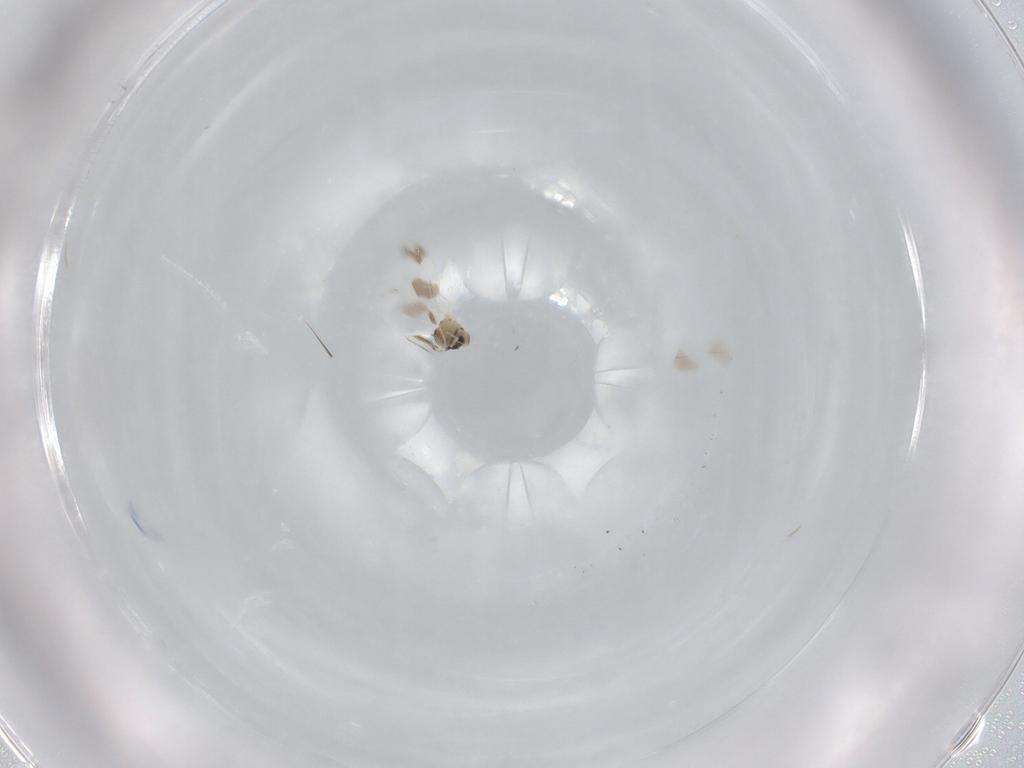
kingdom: Animalia
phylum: Arthropoda
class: Insecta
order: Hemiptera
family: Aleyrodidae
